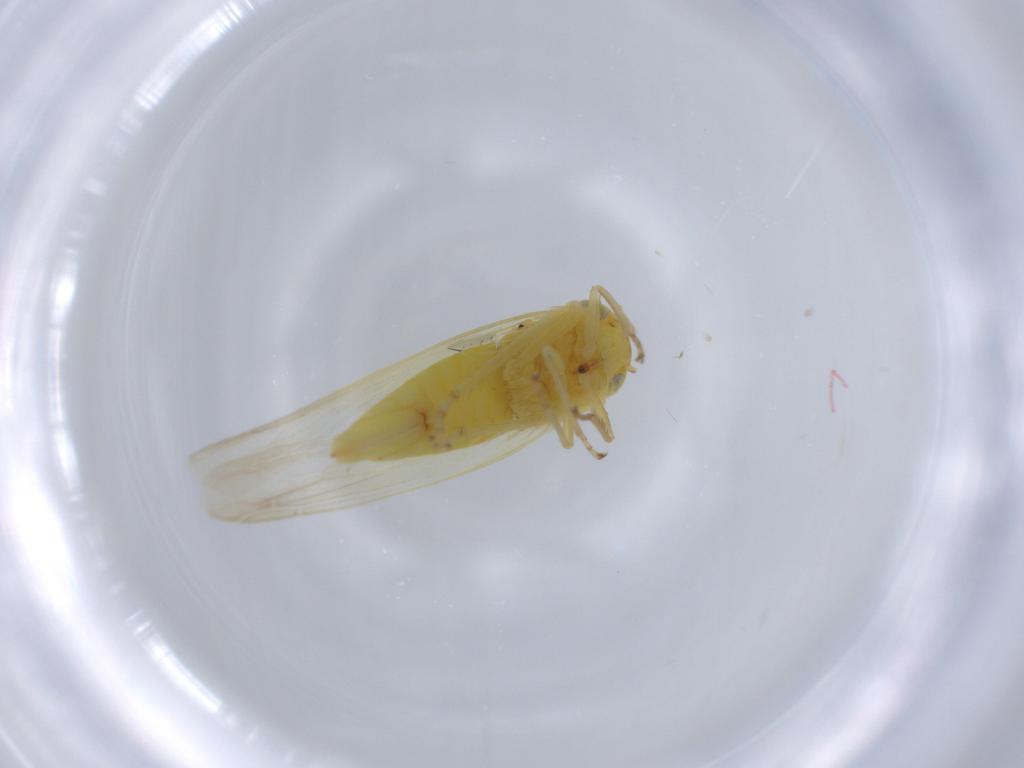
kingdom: Animalia
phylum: Arthropoda
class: Insecta
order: Hemiptera
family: Cicadellidae
